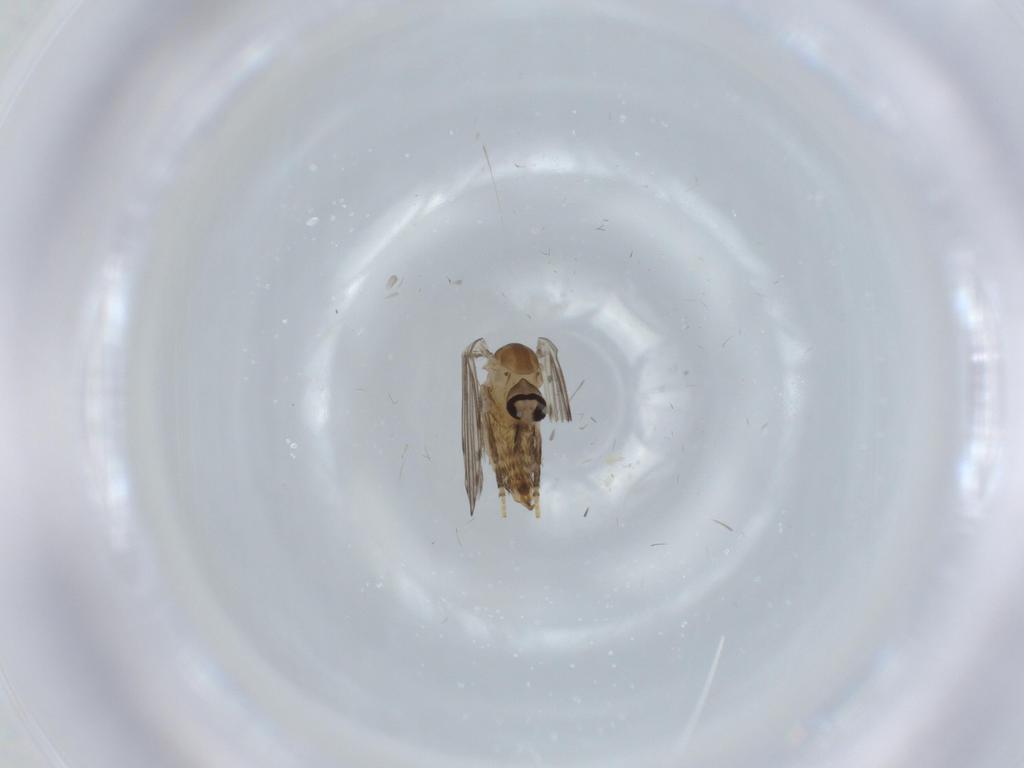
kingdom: Animalia
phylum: Arthropoda
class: Insecta
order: Diptera
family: Psychodidae
